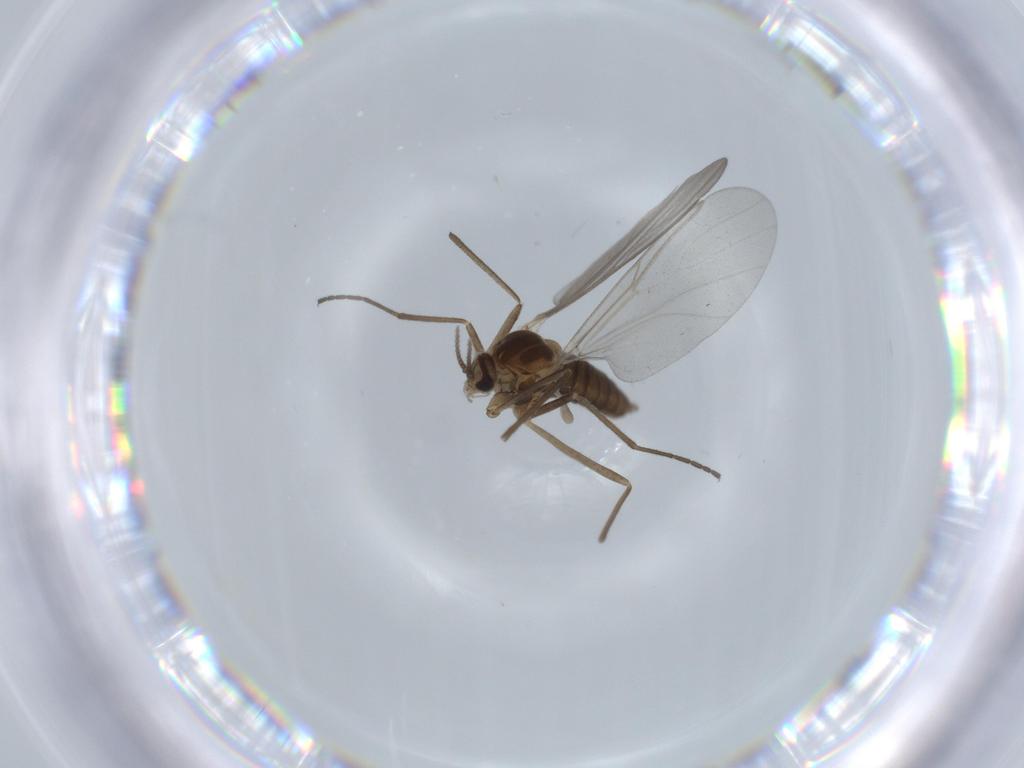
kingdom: Animalia
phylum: Arthropoda
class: Insecta
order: Diptera
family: Cecidomyiidae
